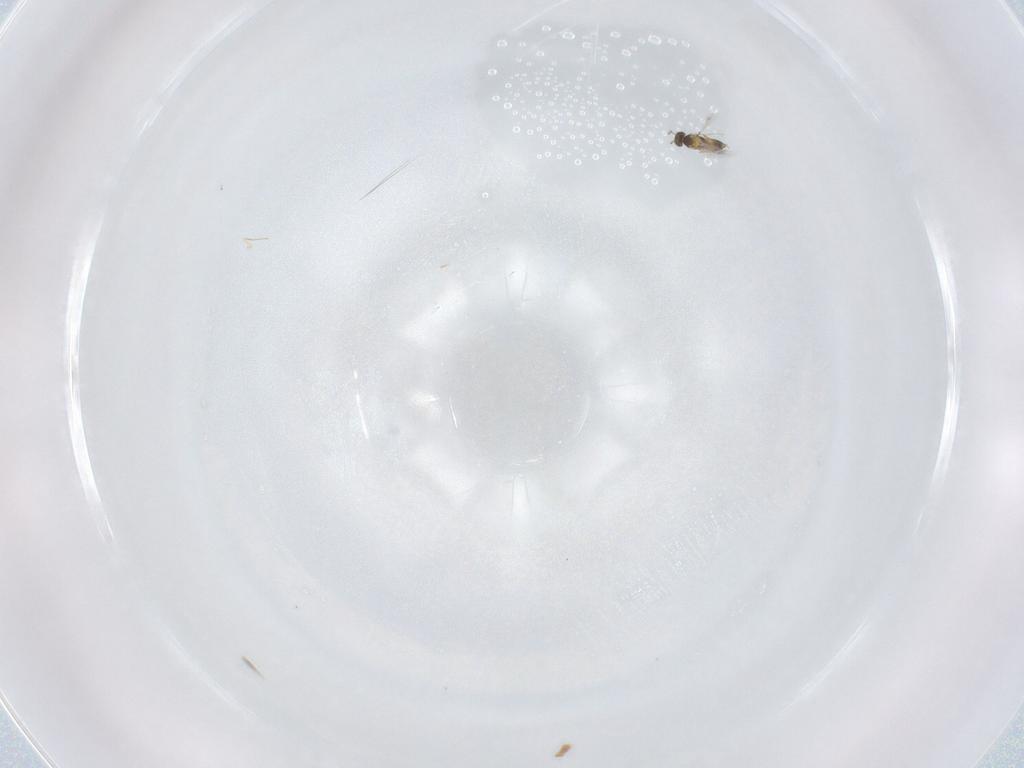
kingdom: Animalia
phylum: Arthropoda
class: Insecta
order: Hymenoptera
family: Mymaridae
